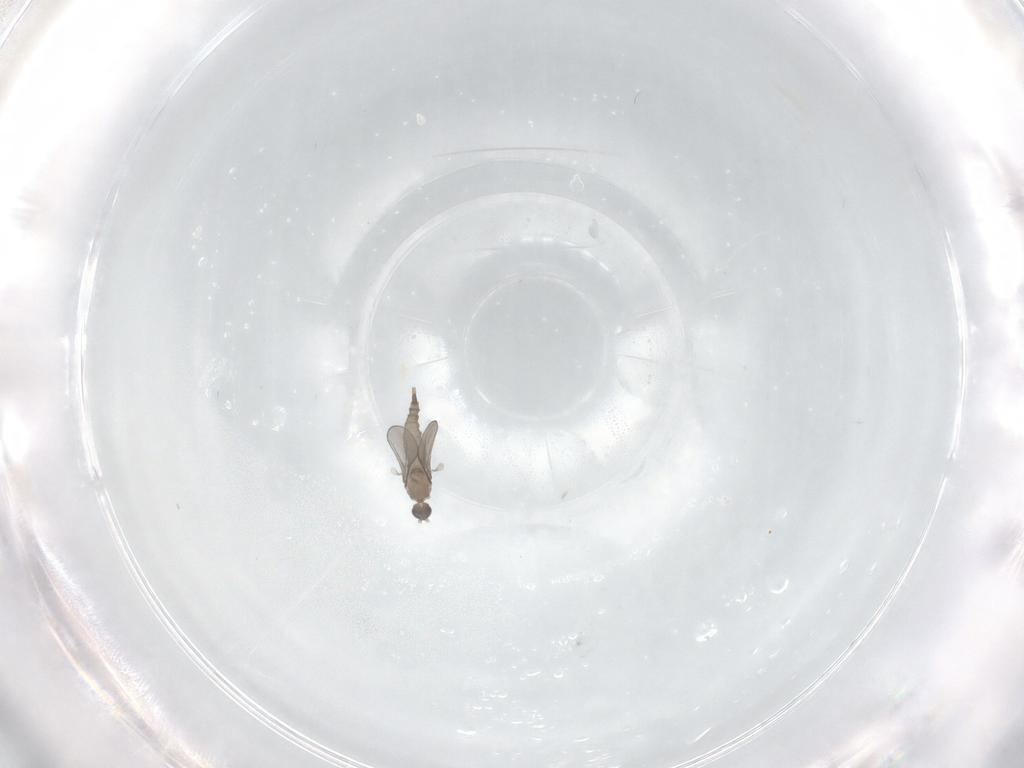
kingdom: Animalia
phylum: Arthropoda
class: Insecta
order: Diptera
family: Cecidomyiidae
